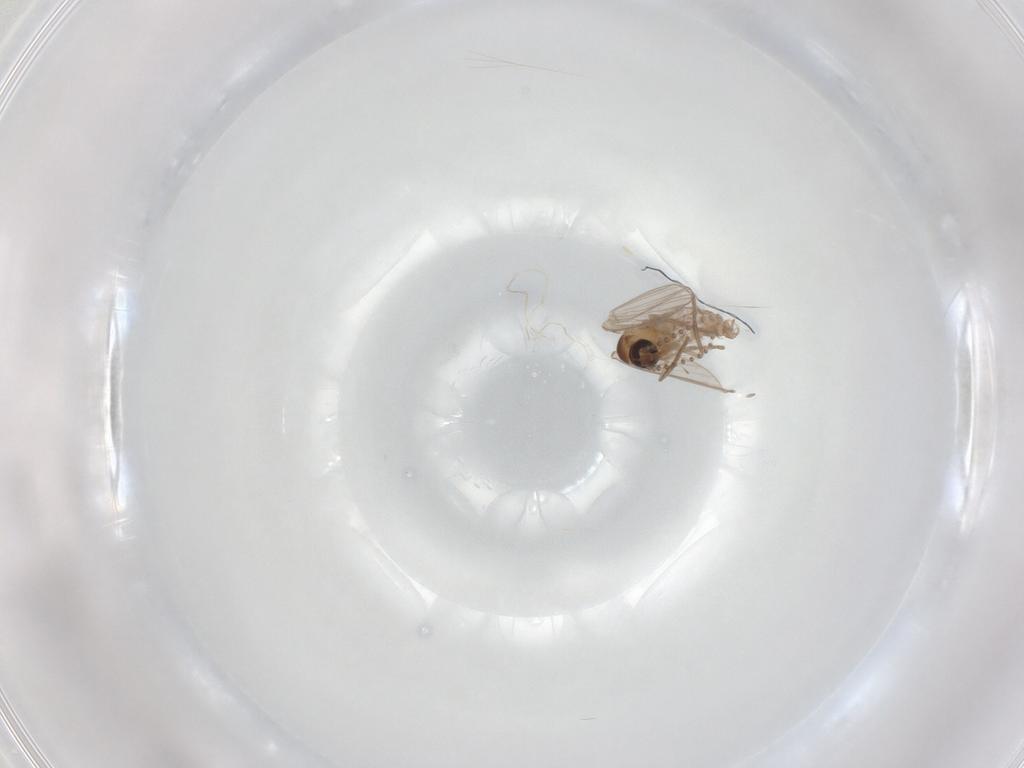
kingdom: Animalia
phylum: Arthropoda
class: Insecta
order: Diptera
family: Psychodidae
